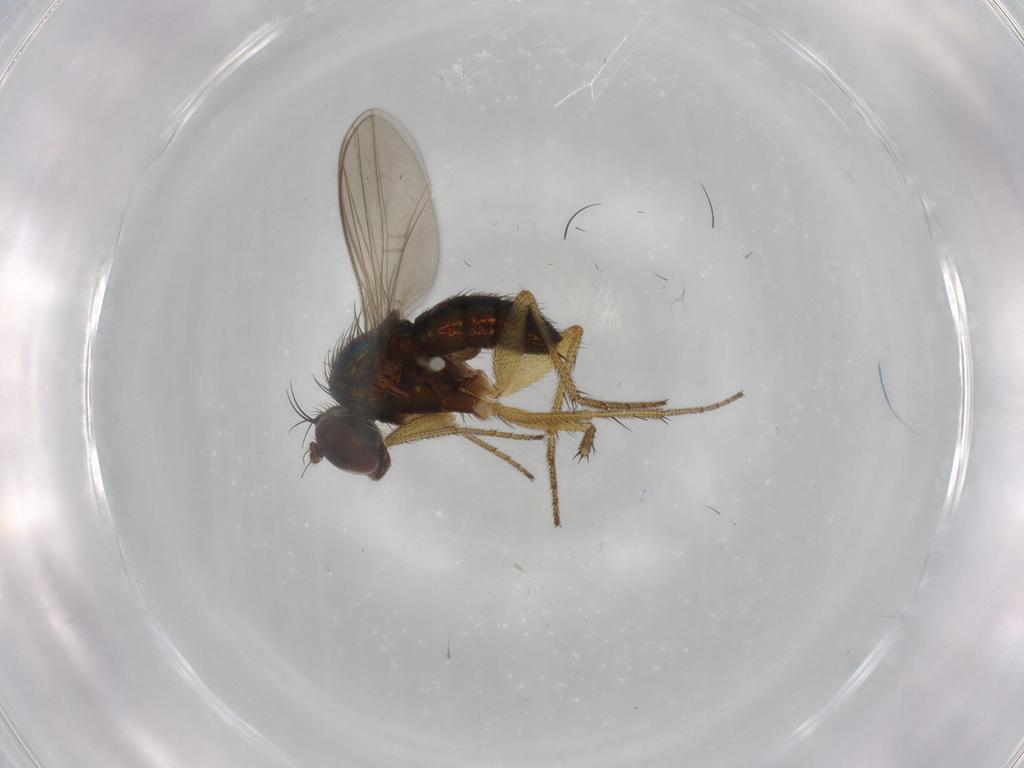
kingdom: Animalia
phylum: Arthropoda
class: Insecta
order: Diptera
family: Dolichopodidae
